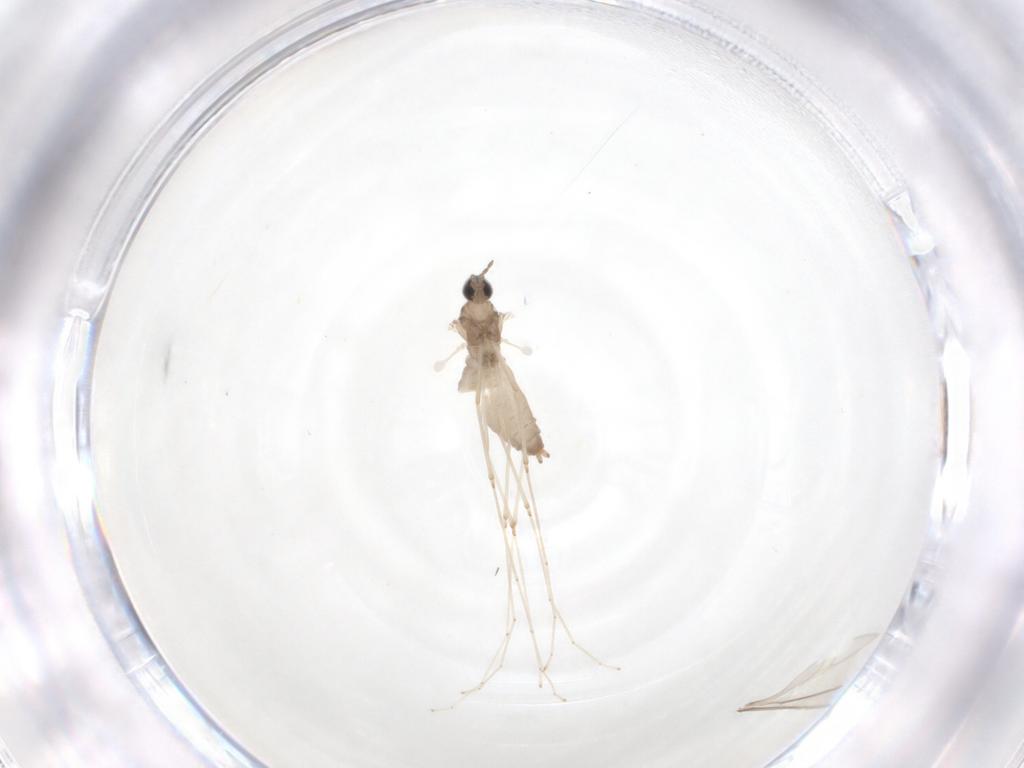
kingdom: Animalia
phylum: Arthropoda
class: Insecta
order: Diptera
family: Cecidomyiidae
